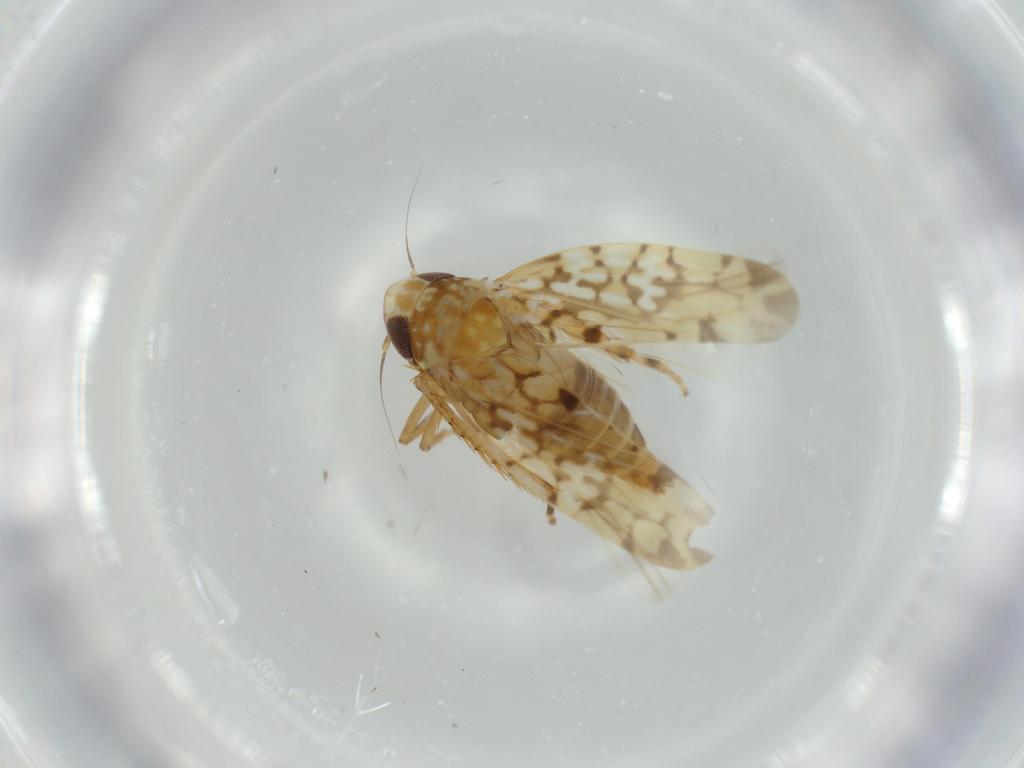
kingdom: Animalia
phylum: Arthropoda
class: Insecta
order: Hemiptera
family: Cicadellidae
